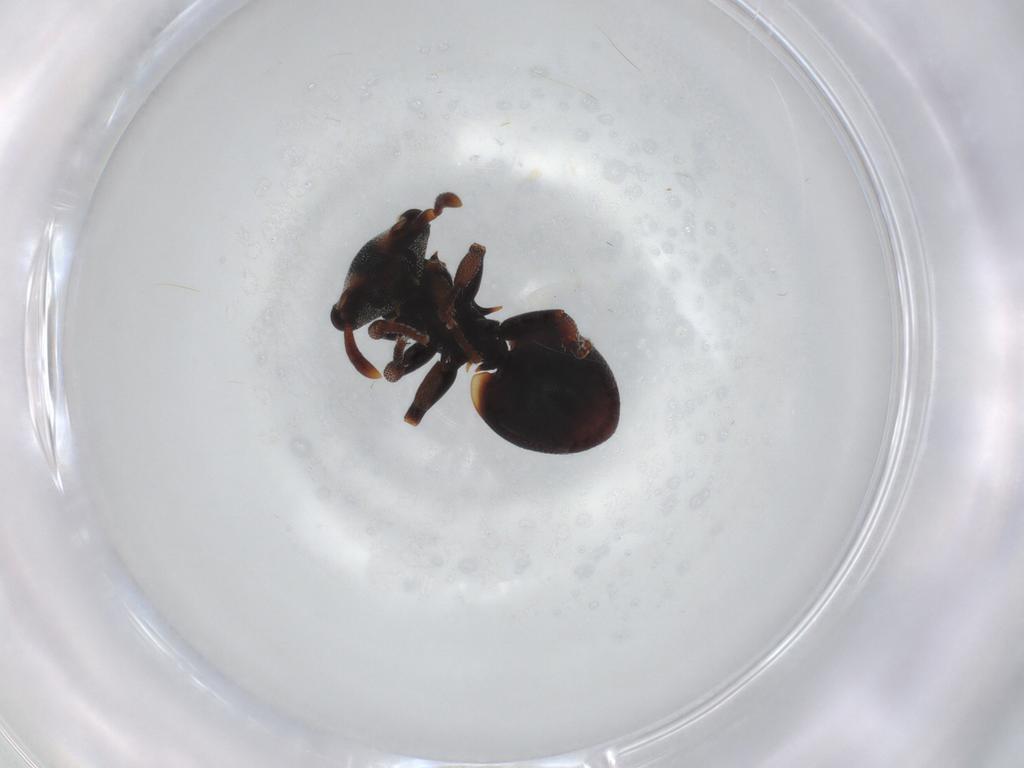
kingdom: Animalia
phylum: Arthropoda
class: Insecta
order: Hymenoptera
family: Formicidae
